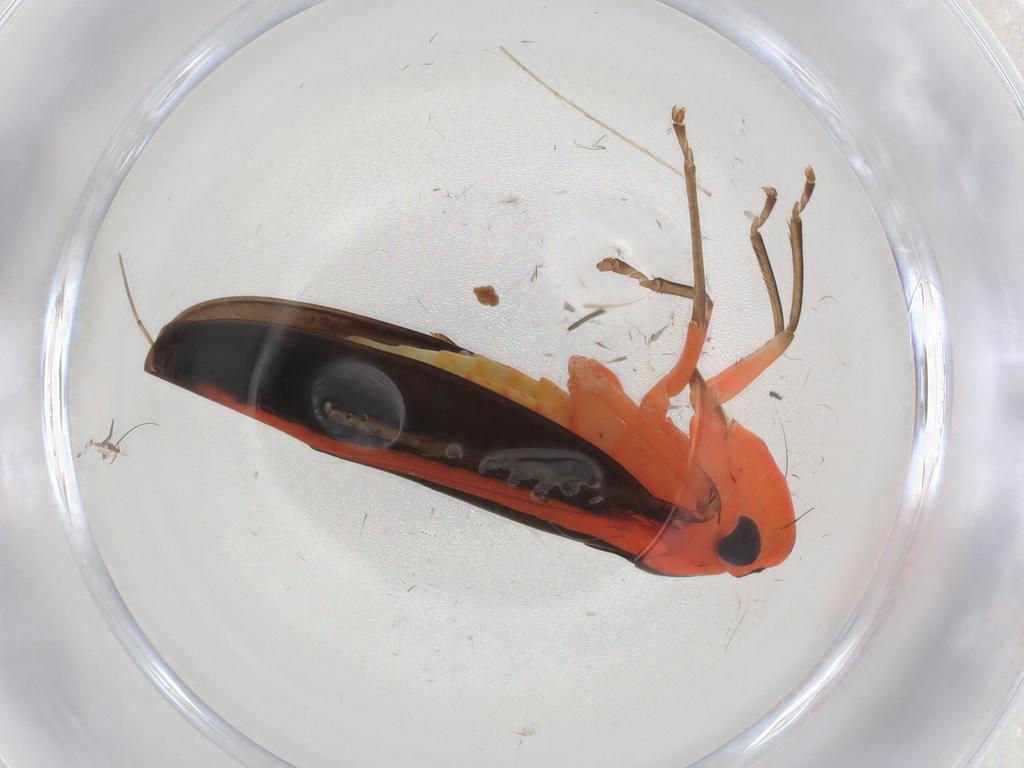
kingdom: Animalia
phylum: Arthropoda
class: Insecta
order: Hemiptera
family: Cicadellidae
